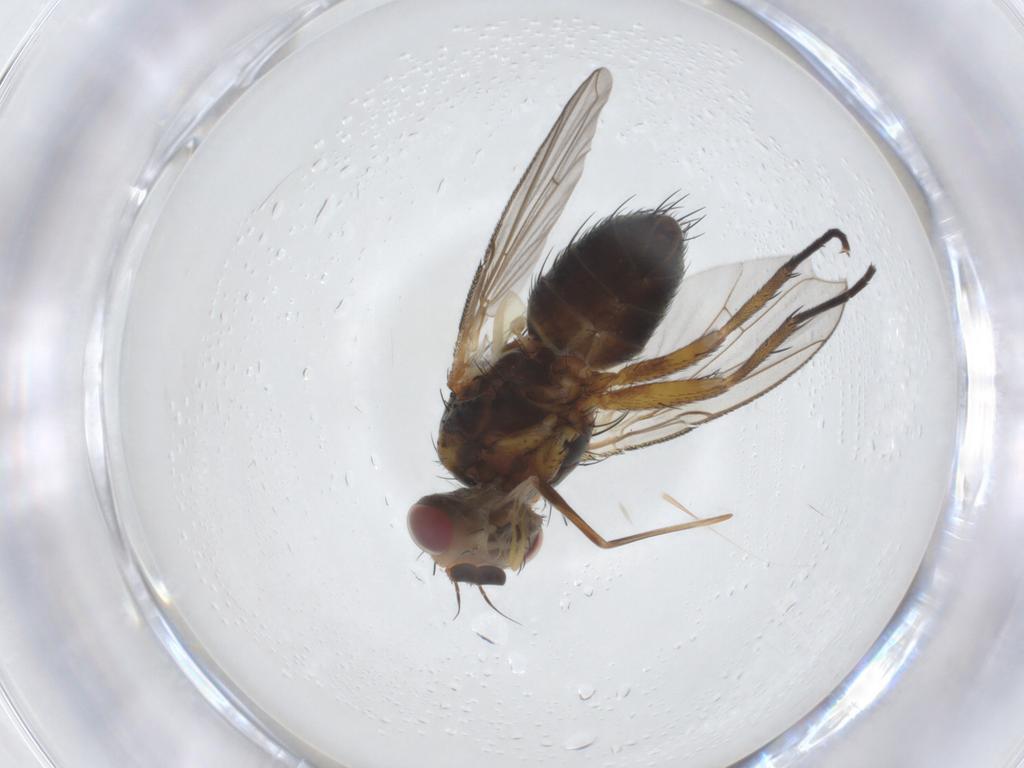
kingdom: Animalia
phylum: Arthropoda
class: Insecta
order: Diptera
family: Tachinidae
